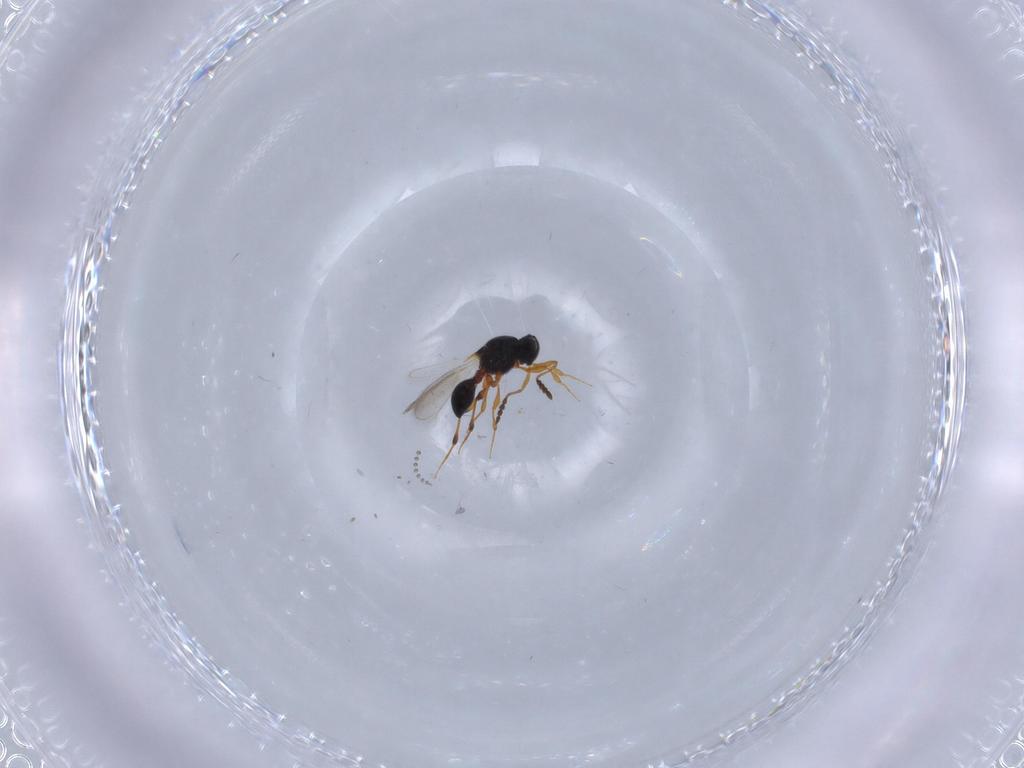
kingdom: Animalia
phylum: Arthropoda
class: Insecta
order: Hymenoptera
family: Platygastridae
